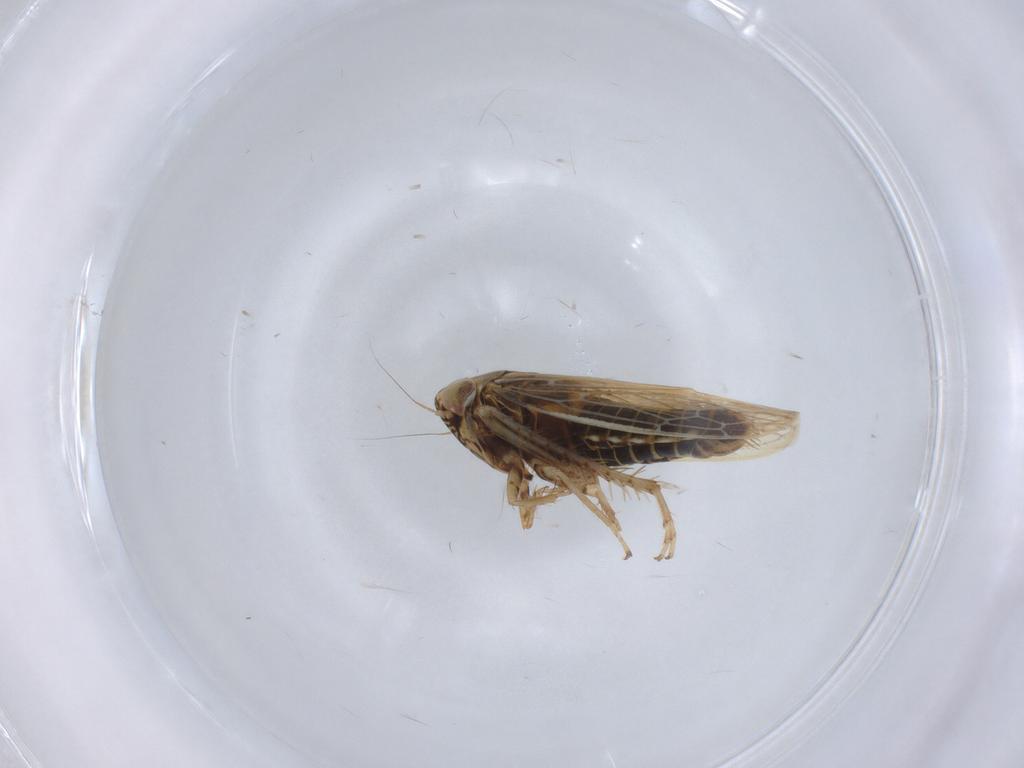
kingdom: Animalia
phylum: Arthropoda
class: Insecta
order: Hemiptera
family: Cicadellidae
